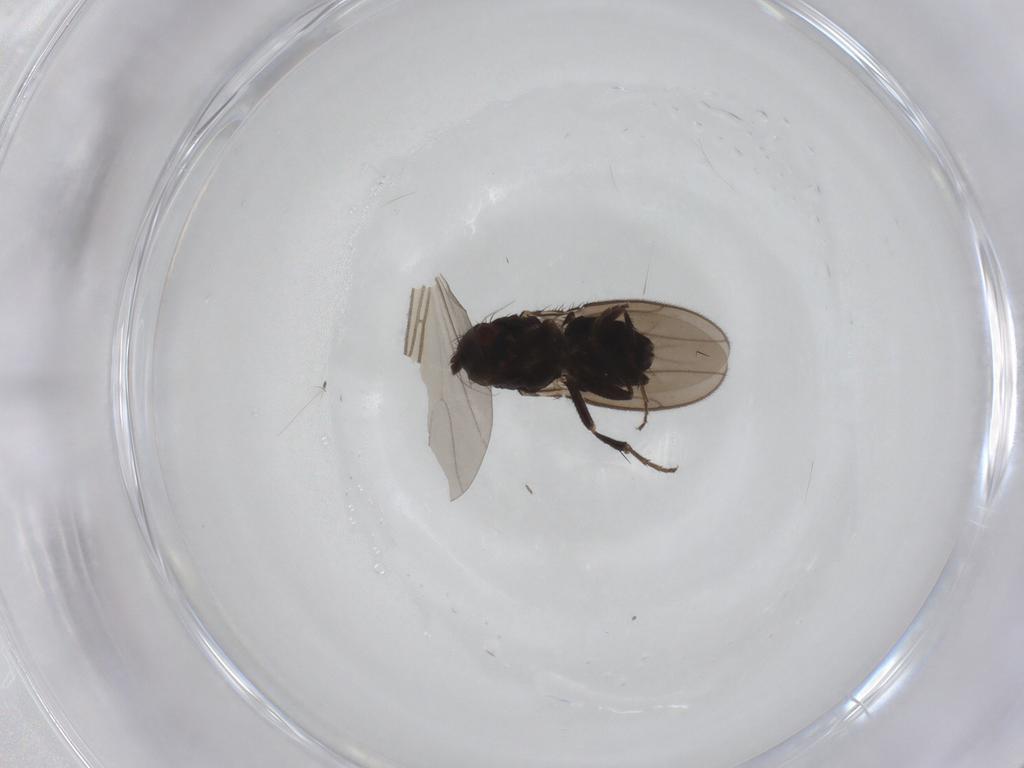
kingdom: Animalia
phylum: Arthropoda
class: Insecta
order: Diptera
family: Sphaeroceridae
